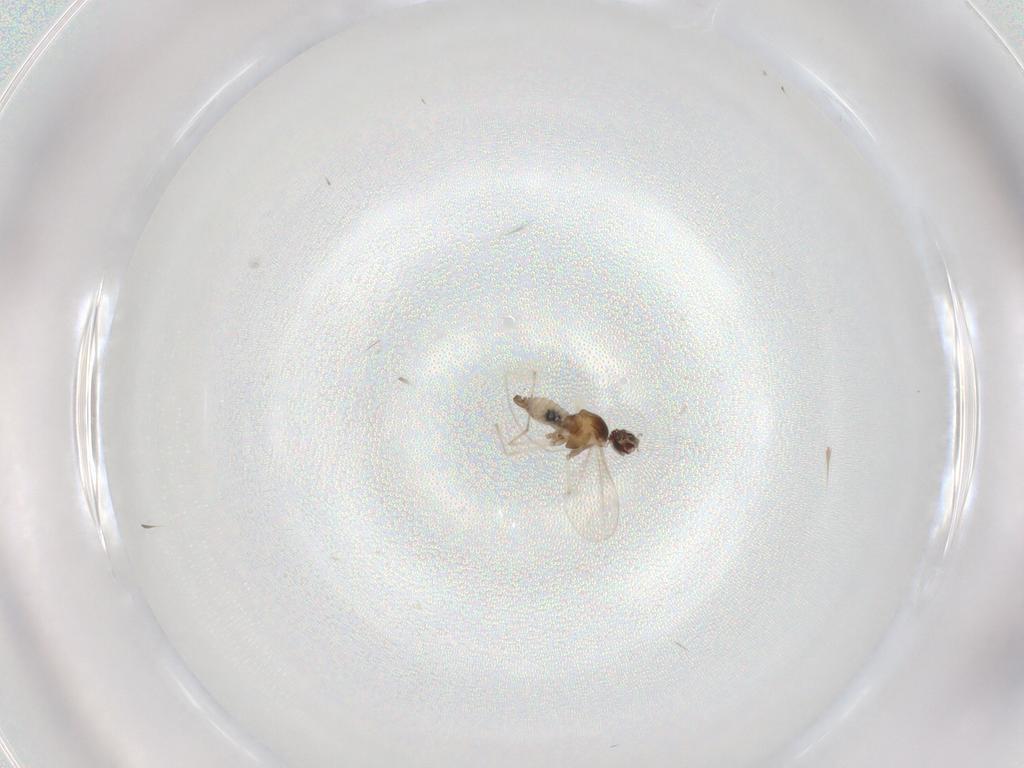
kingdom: Animalia
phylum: Arthropoda
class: Insecta
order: Diptera
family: Cecidomyiidae
